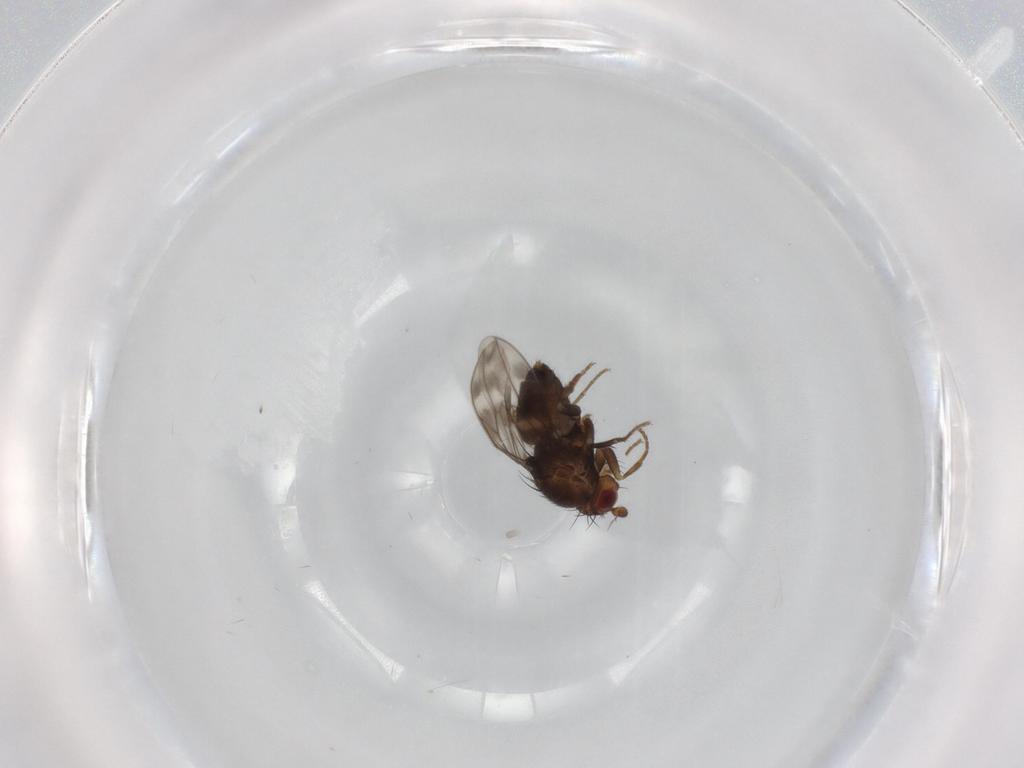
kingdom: Animalia
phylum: Arthropoda
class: Insecta
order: Diptera
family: Sphaeroceridae
